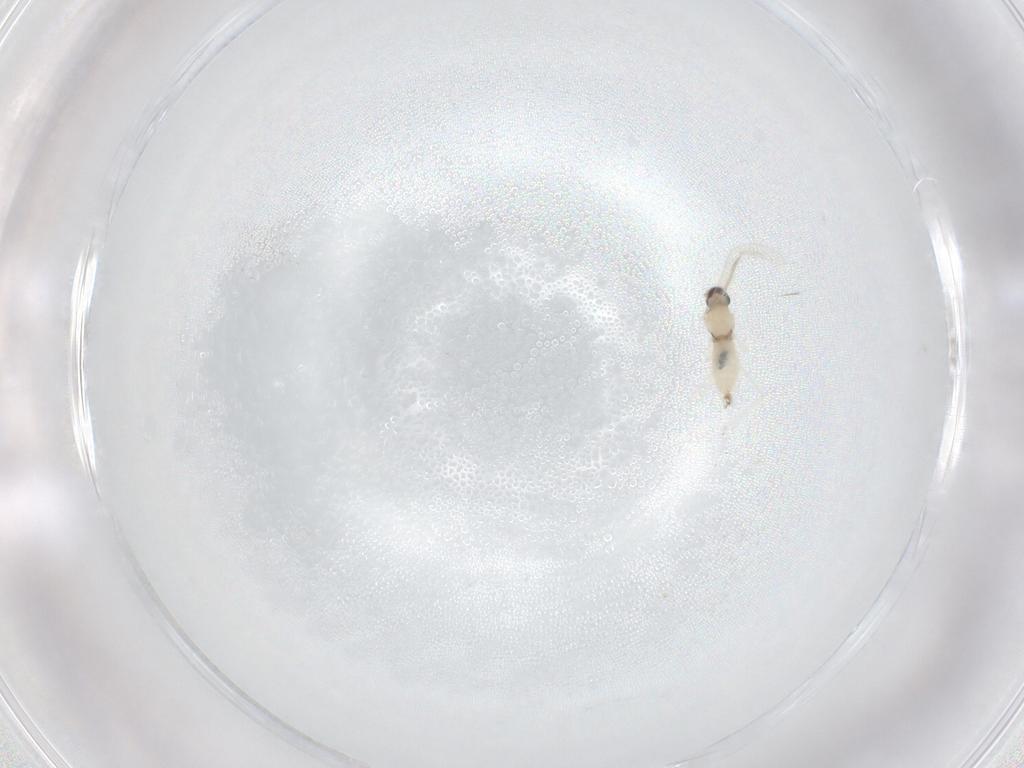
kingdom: Animalia
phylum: Arthropoda
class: Insecta
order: Diptera
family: Cecidomyiidae
